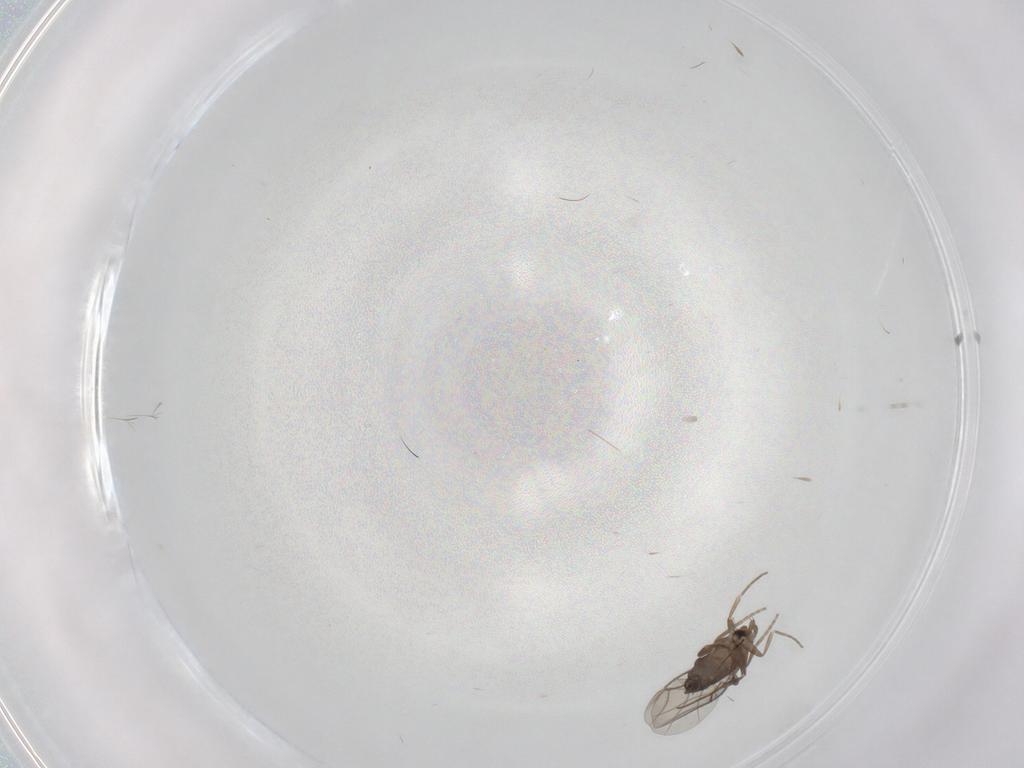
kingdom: Animalia
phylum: Arthropoda
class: Insecta
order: Diptera
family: Phoridae
